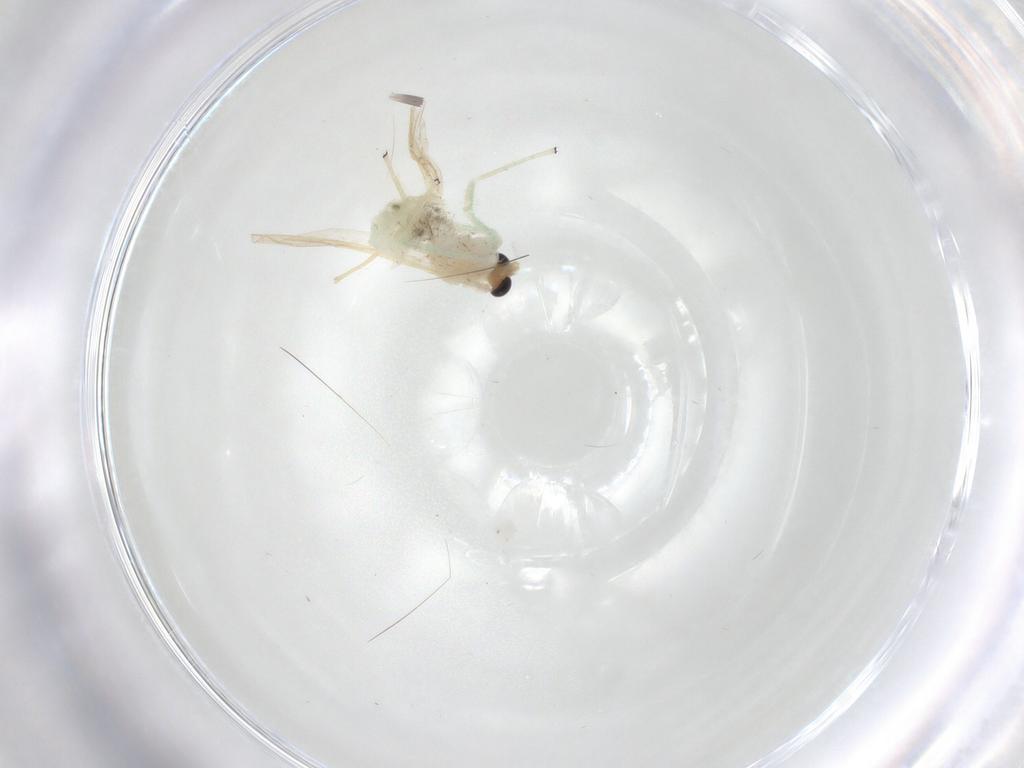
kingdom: Animalia
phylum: Arthropoda
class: Insecta
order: Diptera
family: Chironomidae
